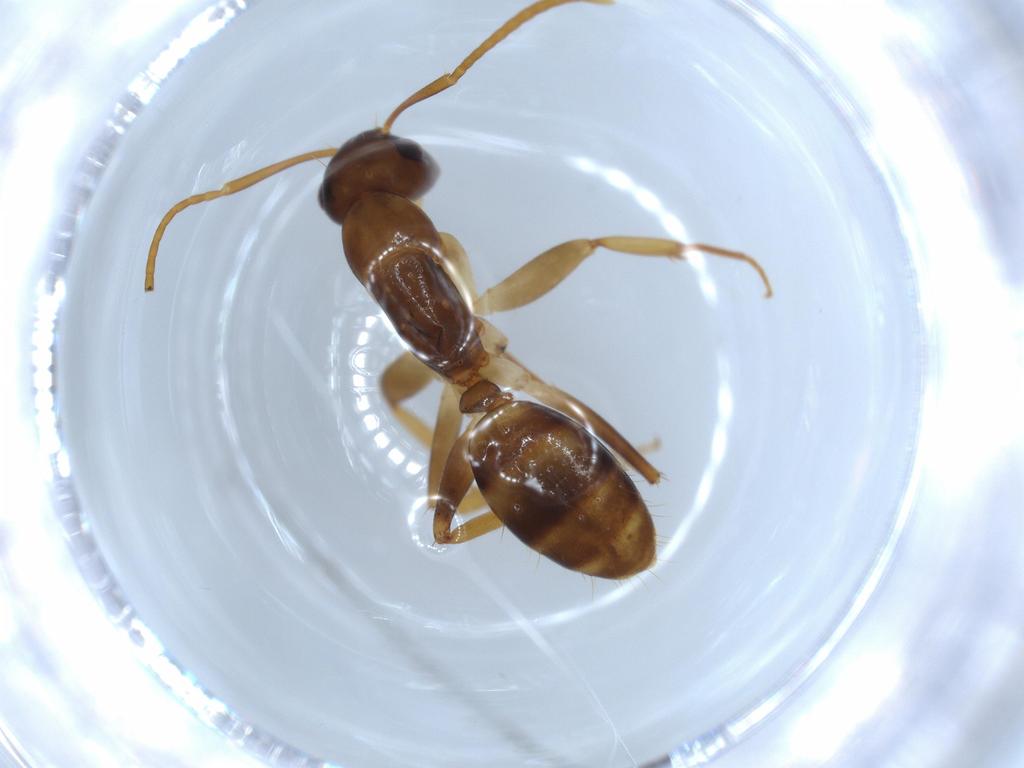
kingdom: Animalia
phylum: Arthropoda
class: Insecta
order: Hymenoptera
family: Formicidae
